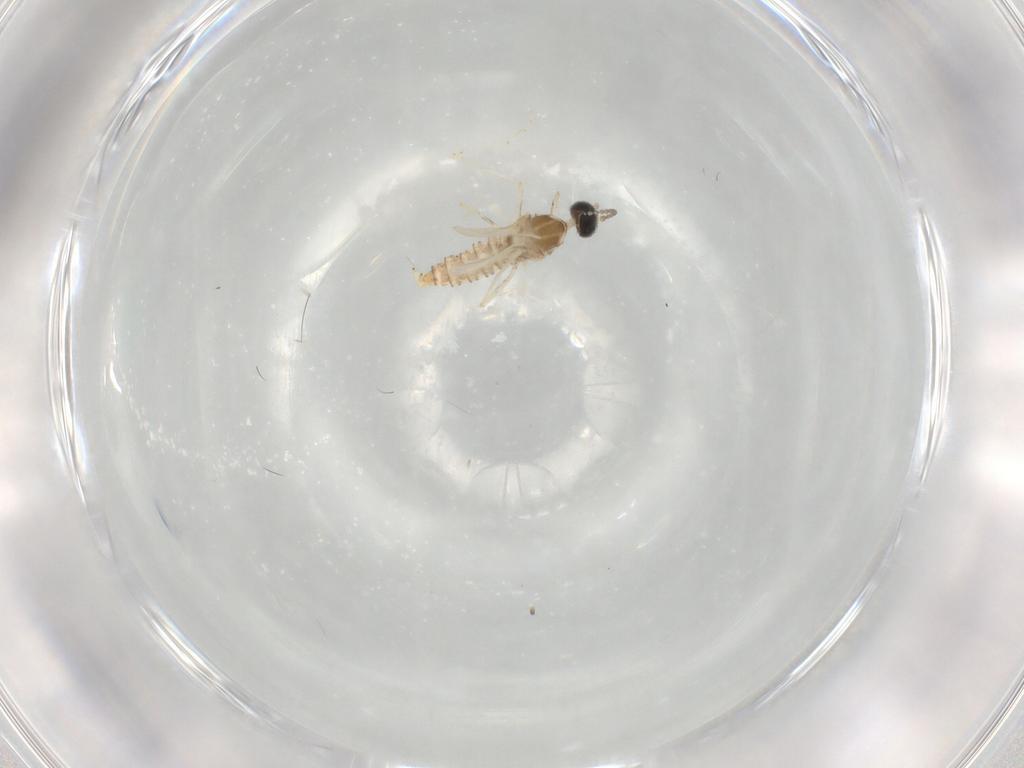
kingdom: Animalia
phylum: Arthropoda
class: Insecta
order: Diptera
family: Cecidomyiidae
